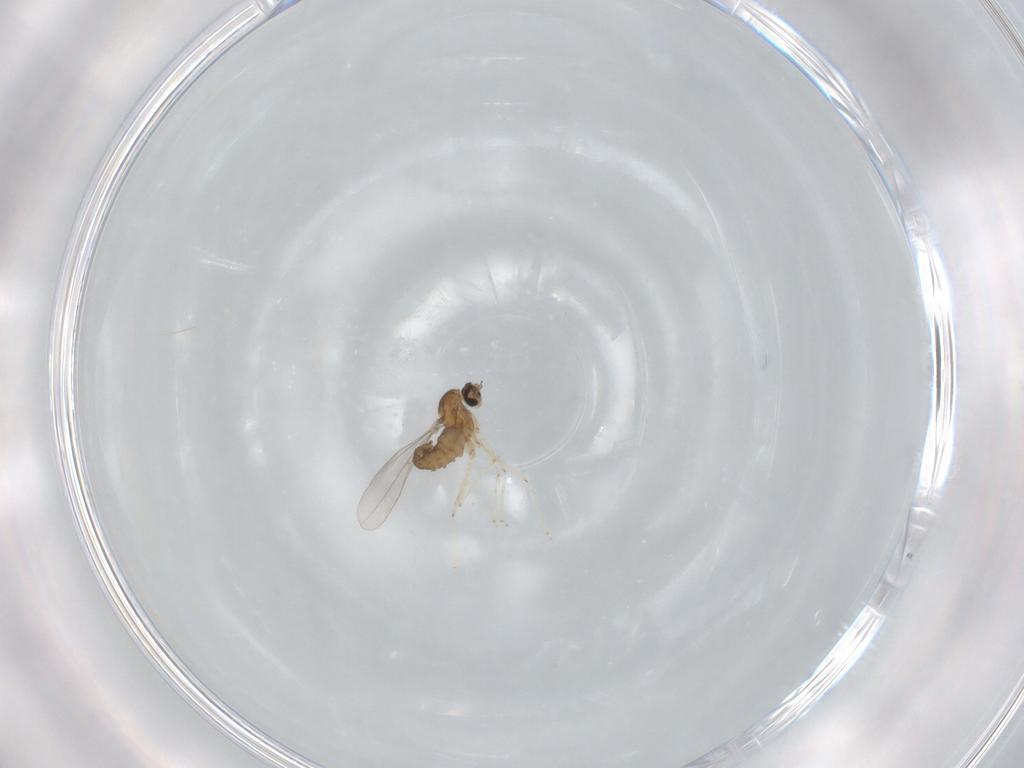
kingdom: Animalia
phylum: Arthropoda
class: Insecta
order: Diptera
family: Cecidomyiidae
